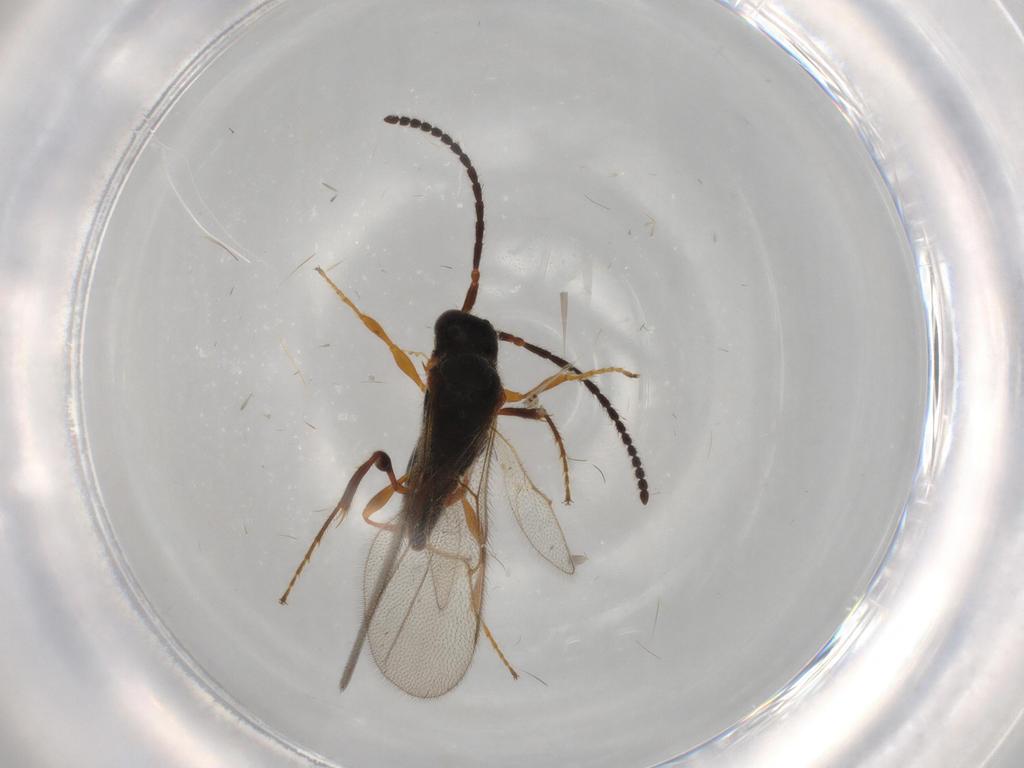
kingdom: Animalia
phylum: Arthropoda
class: Insecta
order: Hymenoptera
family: Diapriidae
